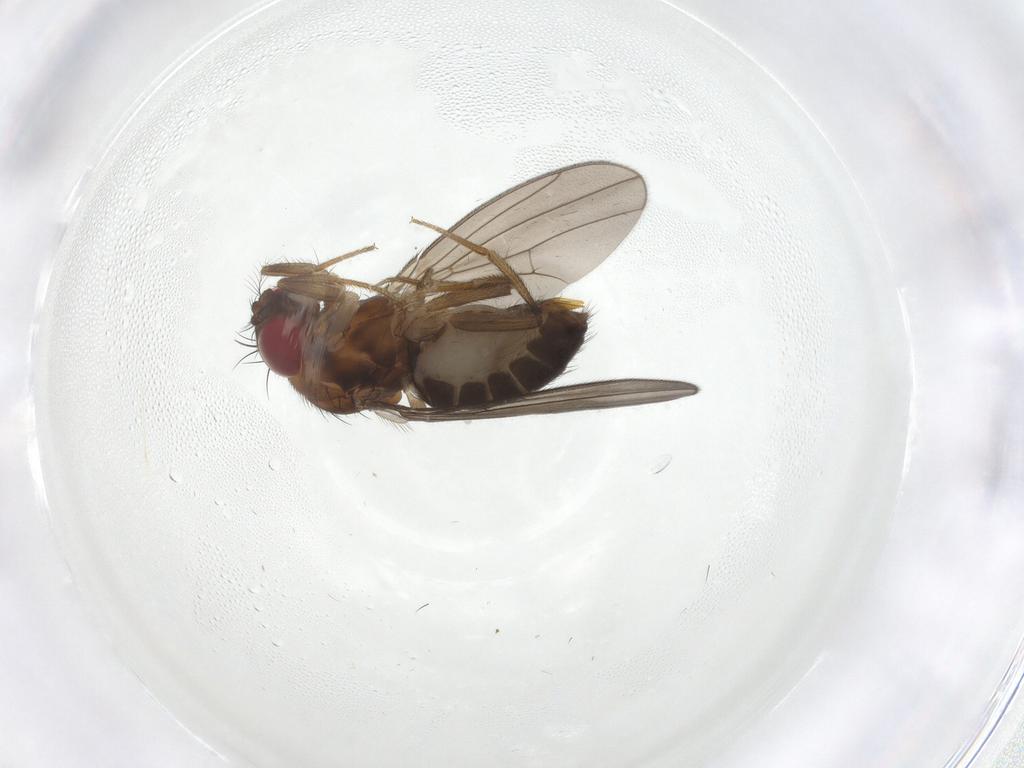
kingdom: Animalia
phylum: Arthropoda
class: Insecta
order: Diptera
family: Drosophilidae
